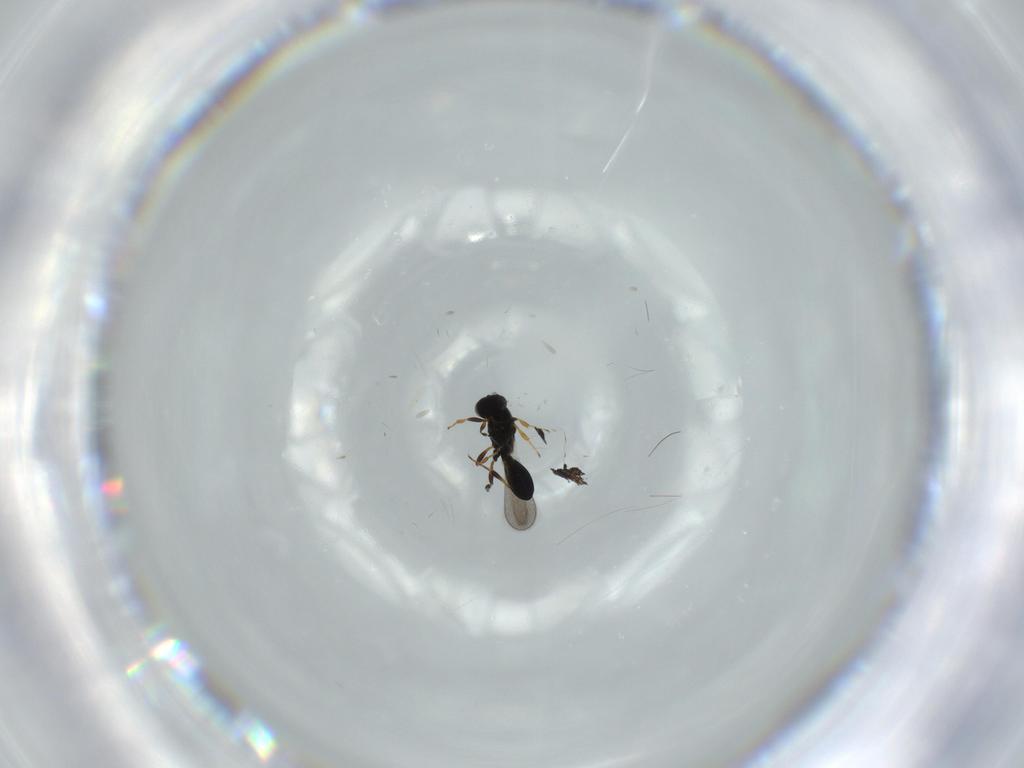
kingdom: Animalia
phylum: Arthropoda
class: Insecta
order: Hymenoptera
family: Platygastridae
